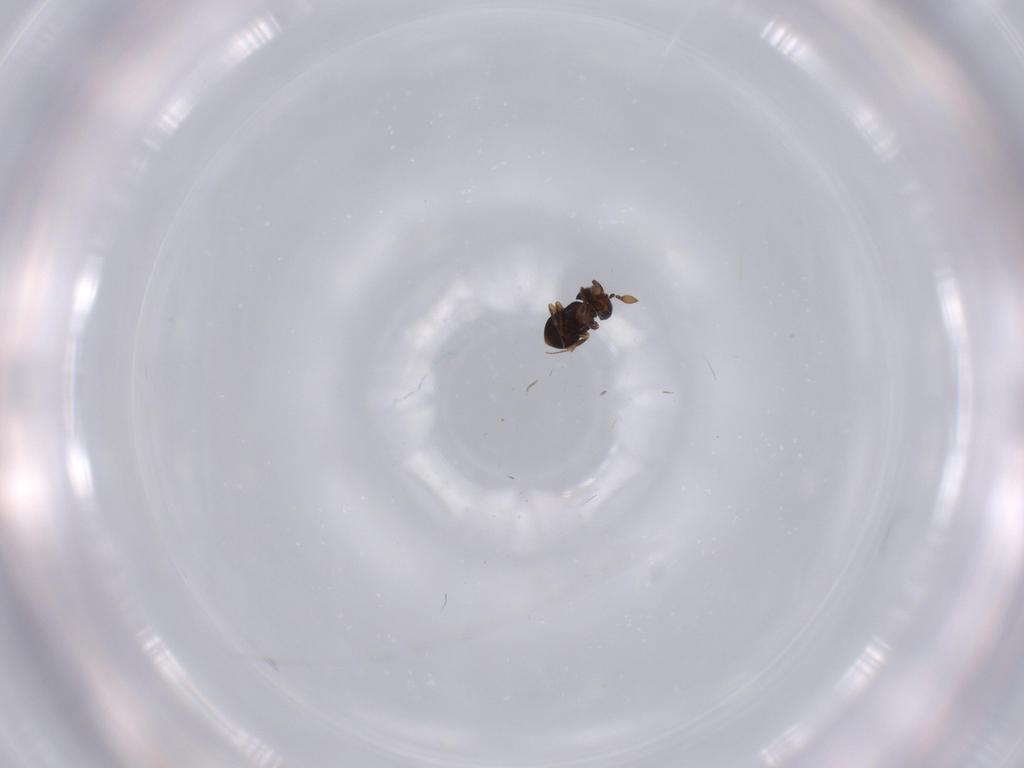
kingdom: Animalia
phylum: Arthropoda
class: Insecta
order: Hymenoptera
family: Scelionidae
